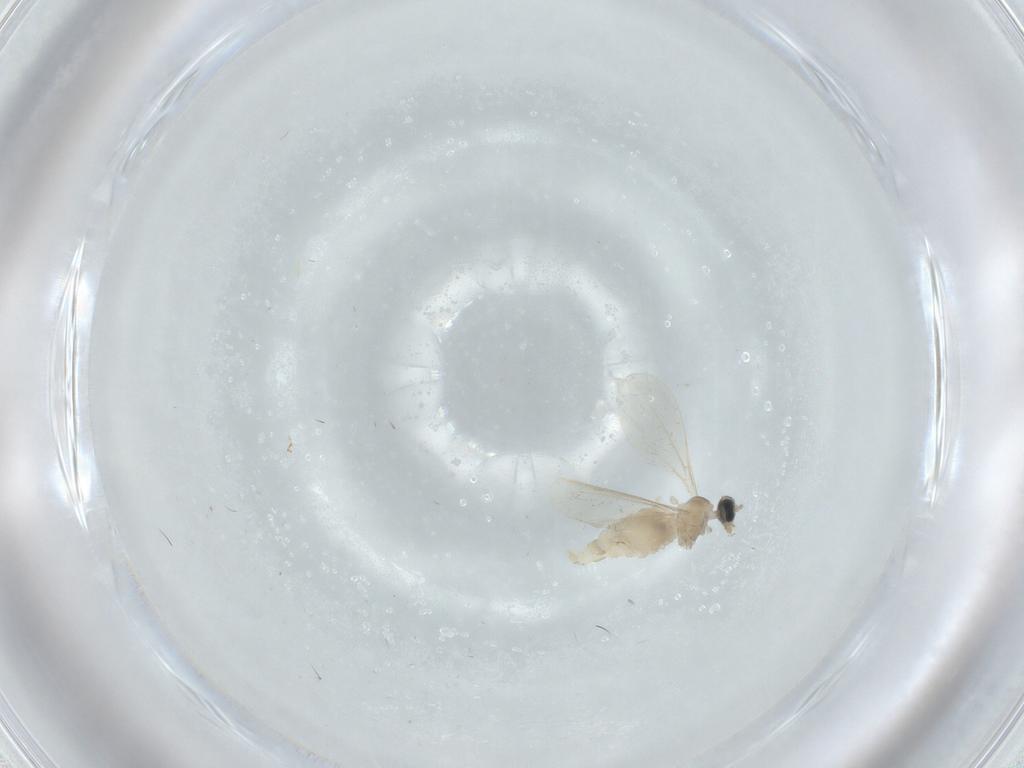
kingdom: Animalia
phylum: Arthropoda
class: Insecta
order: Diptera
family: Cecidomyiidae
